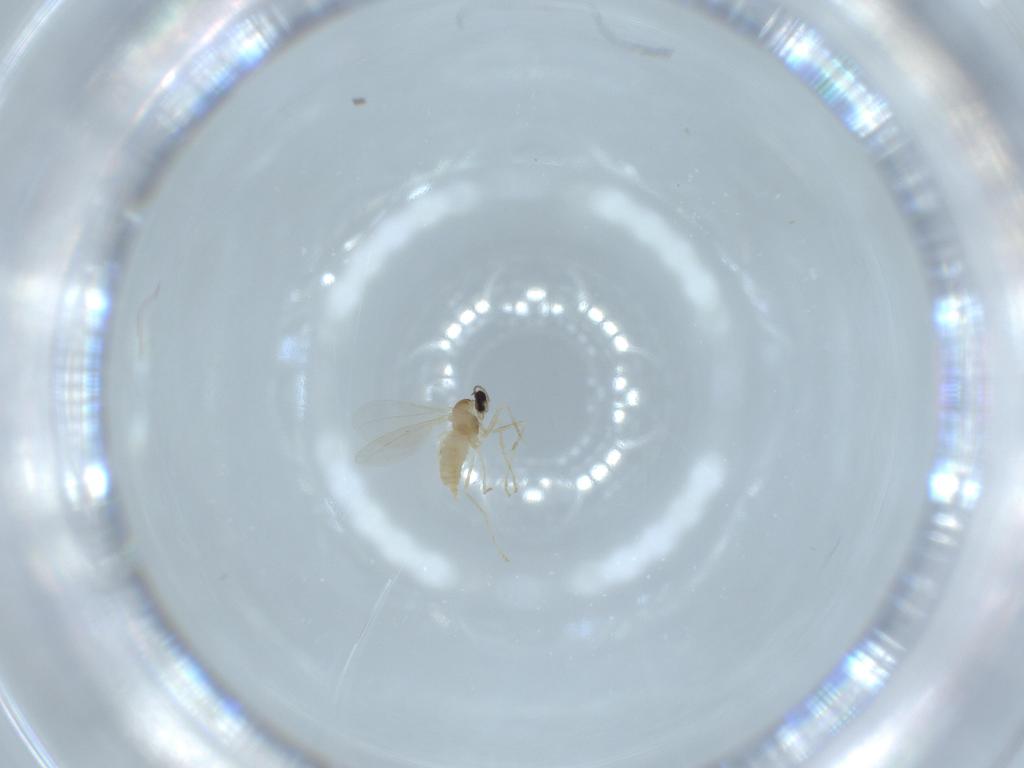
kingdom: Animalia
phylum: Arthropoda
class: Insecta
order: Diptera
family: Cecidomyiidae
